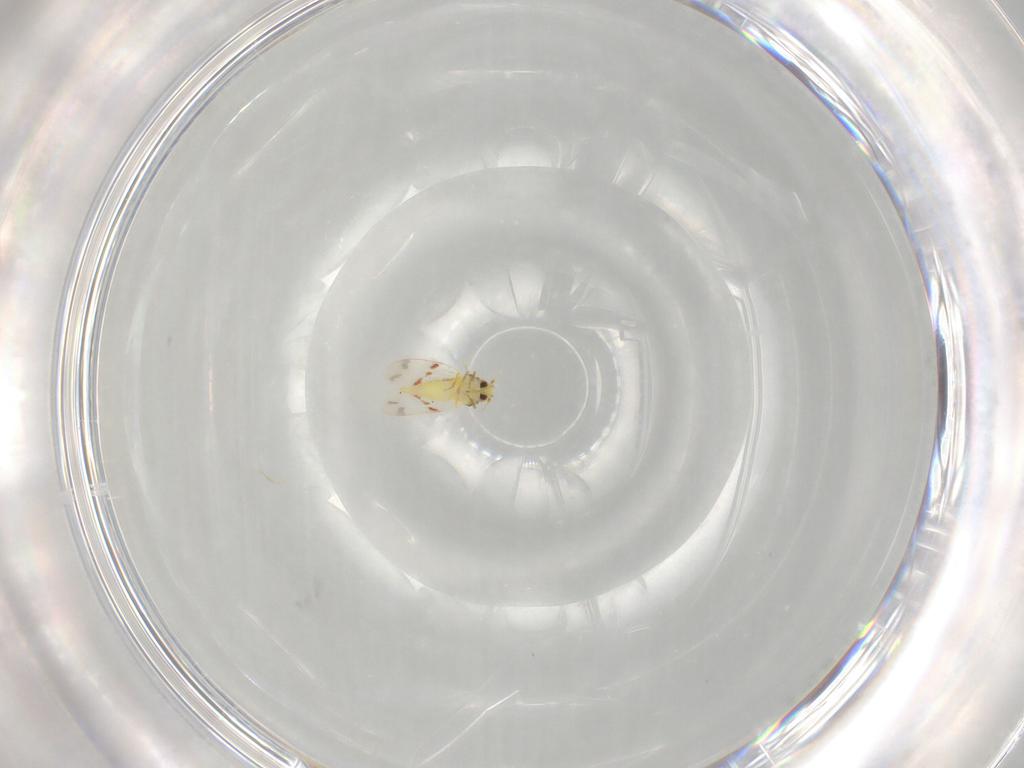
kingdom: Animalia
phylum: Arthropoda
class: Insecta
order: Hemiptera
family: Aleyrodidae
